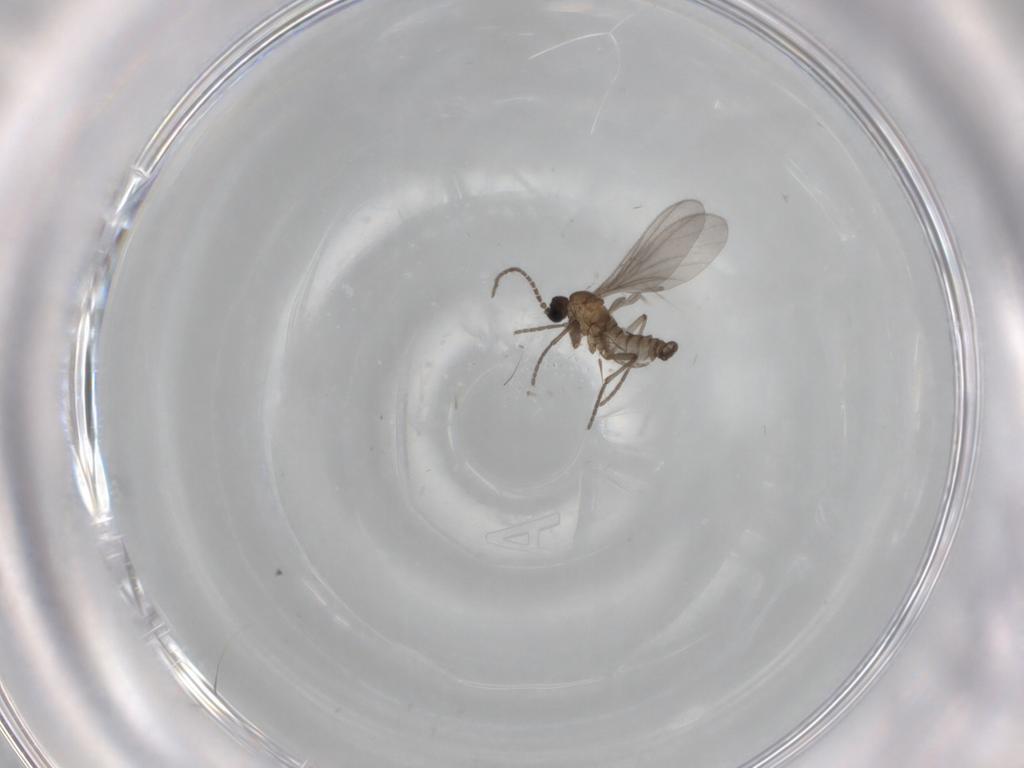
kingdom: Animalia
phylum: Arthropoda
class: Insecta
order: Diptera
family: Sciaridae
